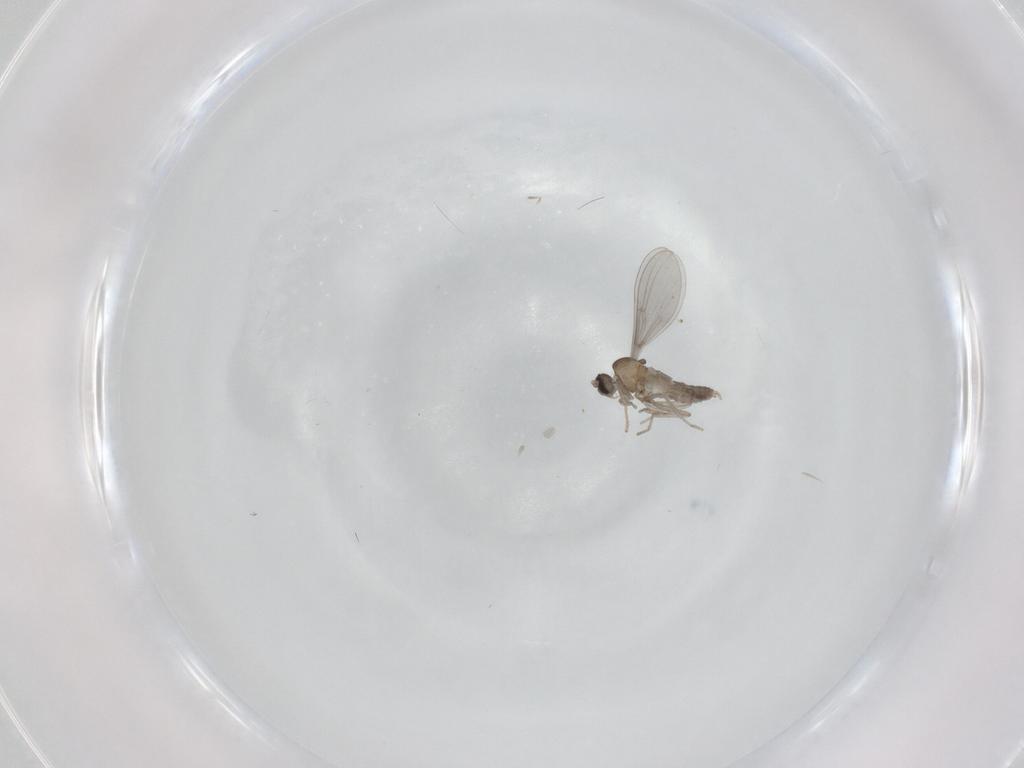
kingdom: Animalia
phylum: Arthropoda
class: Insecta
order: Diptera
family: Cecidomyiidae
